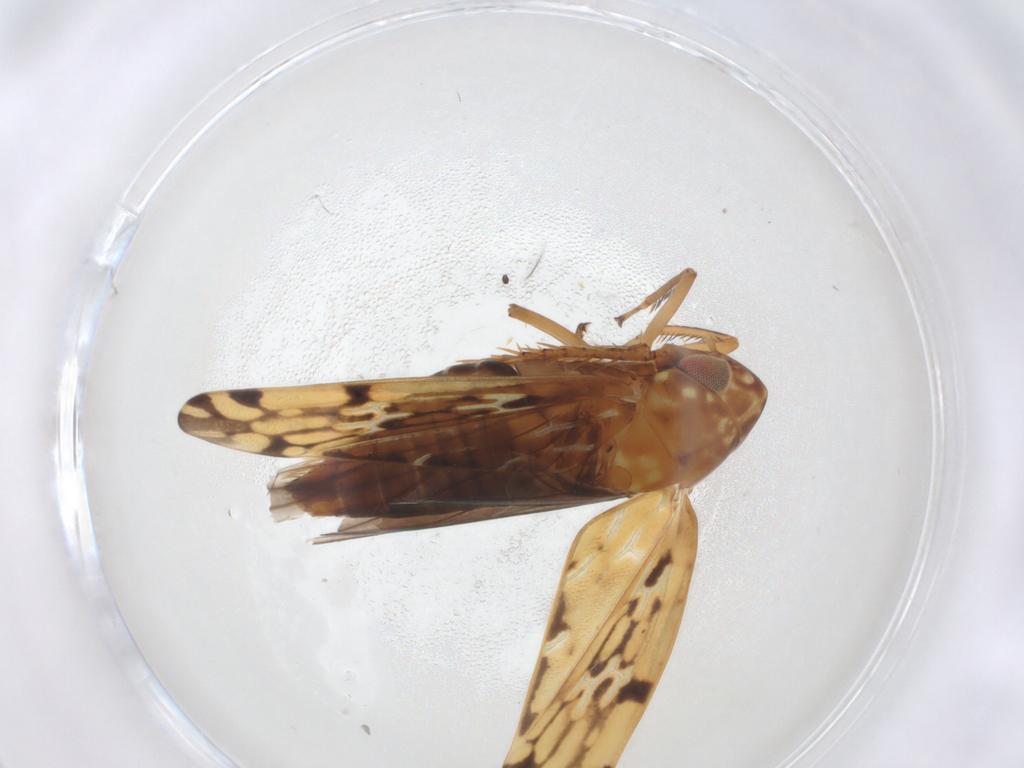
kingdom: Animalia
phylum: Arthropoda
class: Insecta
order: Hemiptera
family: Cicadellidae
